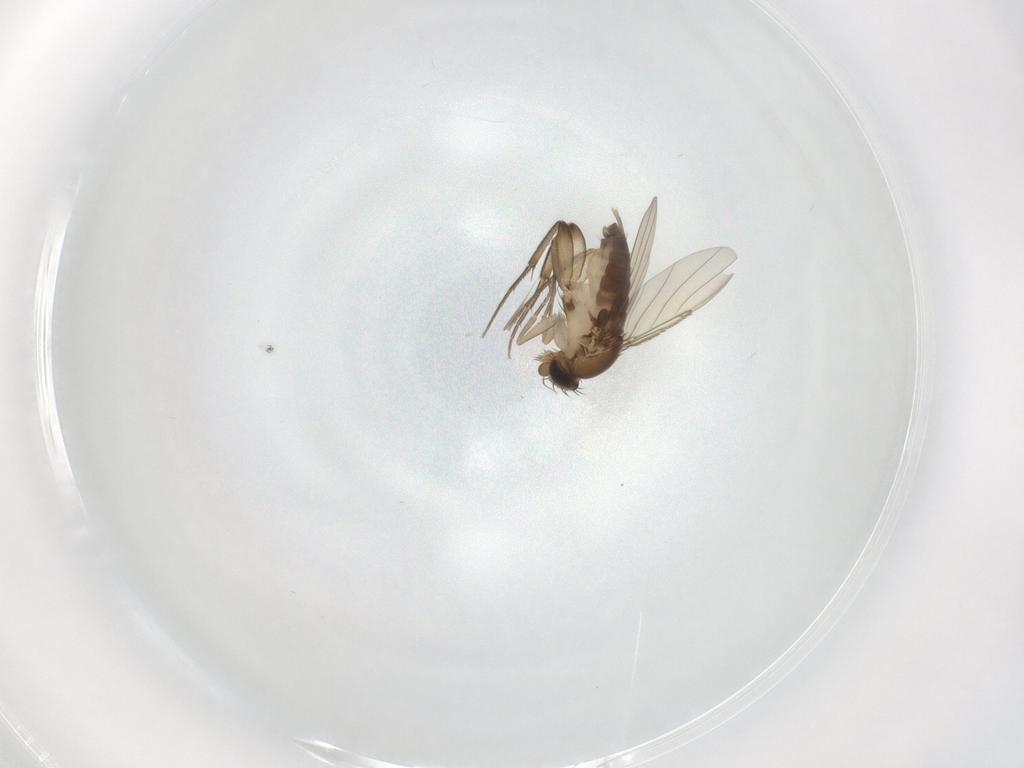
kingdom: Animalia
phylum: Arthropoda
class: Insecta
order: Diptera
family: Phoridae
